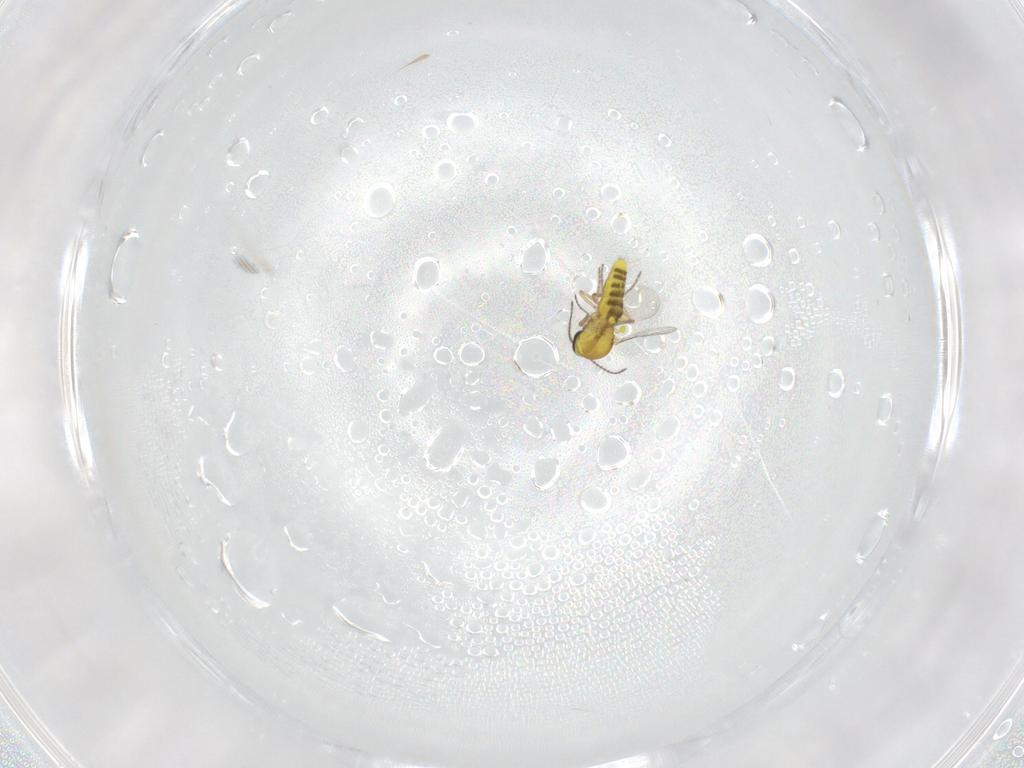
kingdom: Animalia
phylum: Arthropoda
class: Insecta
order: Diptera
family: Ceratopogonidae
